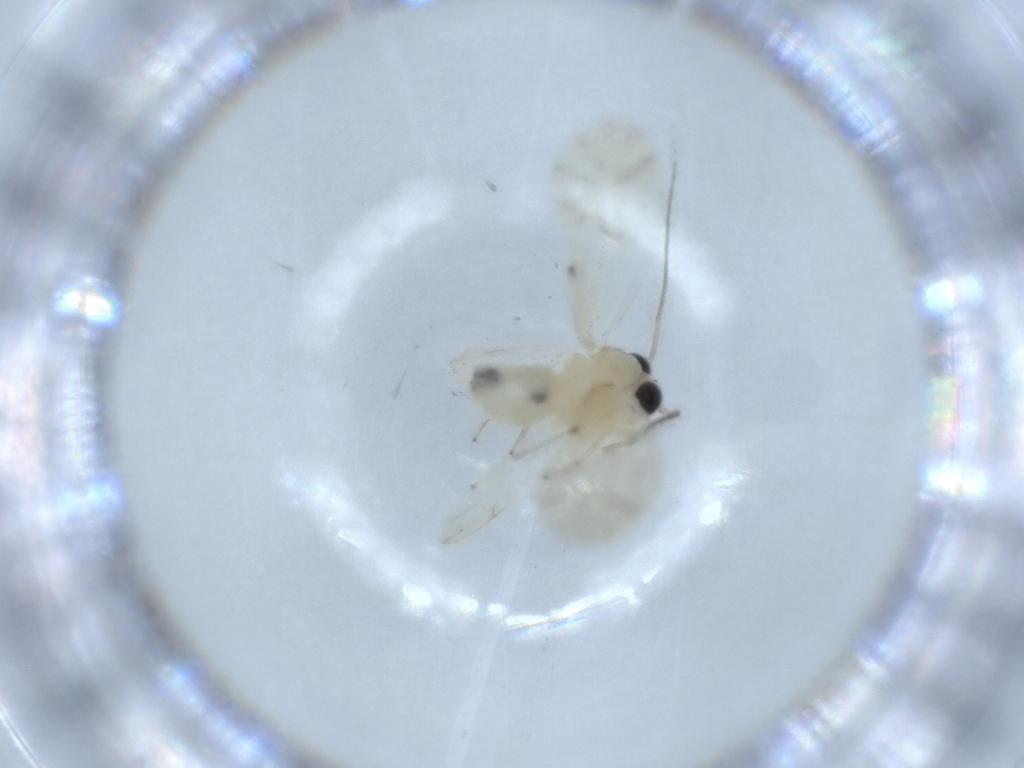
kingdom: Animalia
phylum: Arthropoda
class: Insecta
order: Psocodea
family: Caeciliusidae
